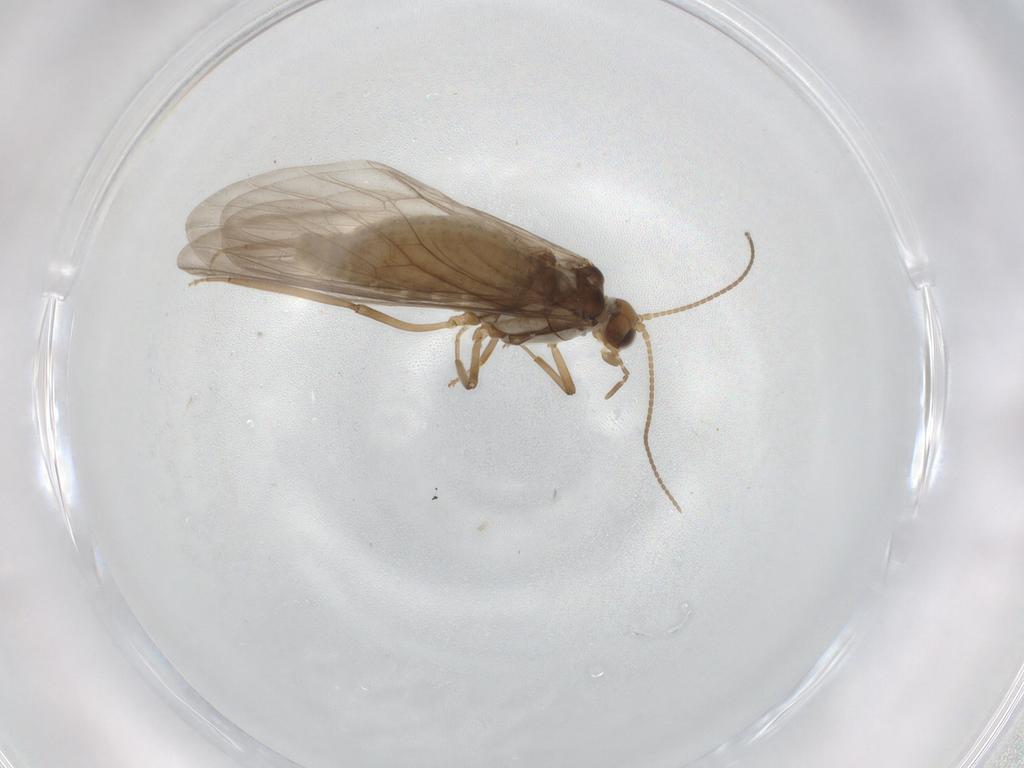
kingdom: Animalia
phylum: Arthropoda
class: Insecta
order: Neuroptera
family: Coniopterygidae
